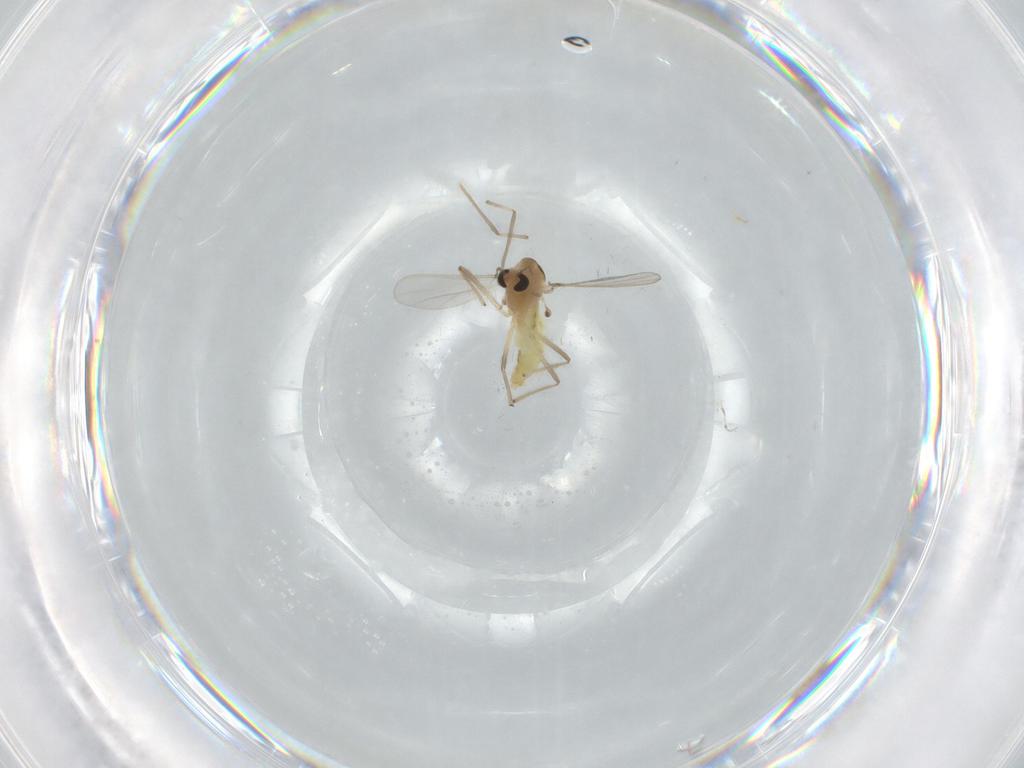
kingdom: Animalia
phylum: Arthropoda
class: Insecta
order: Diptera
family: Chironomidae
